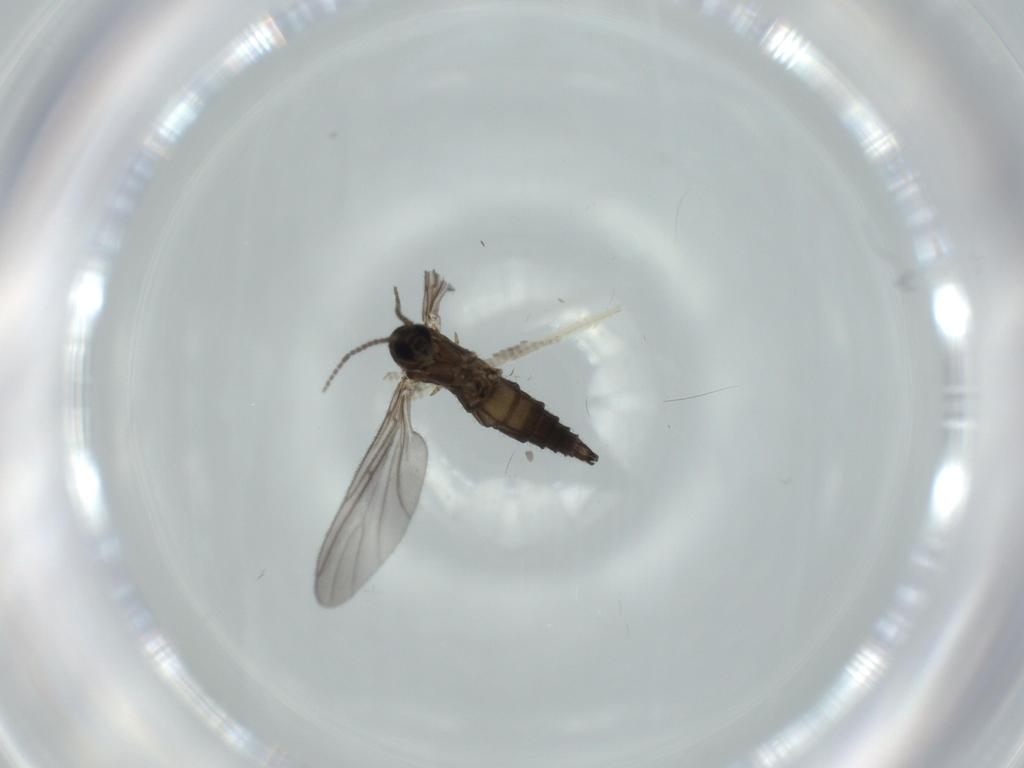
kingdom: Animalia
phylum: Arthropoda
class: Insecta
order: Diptera
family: Sciaridae
